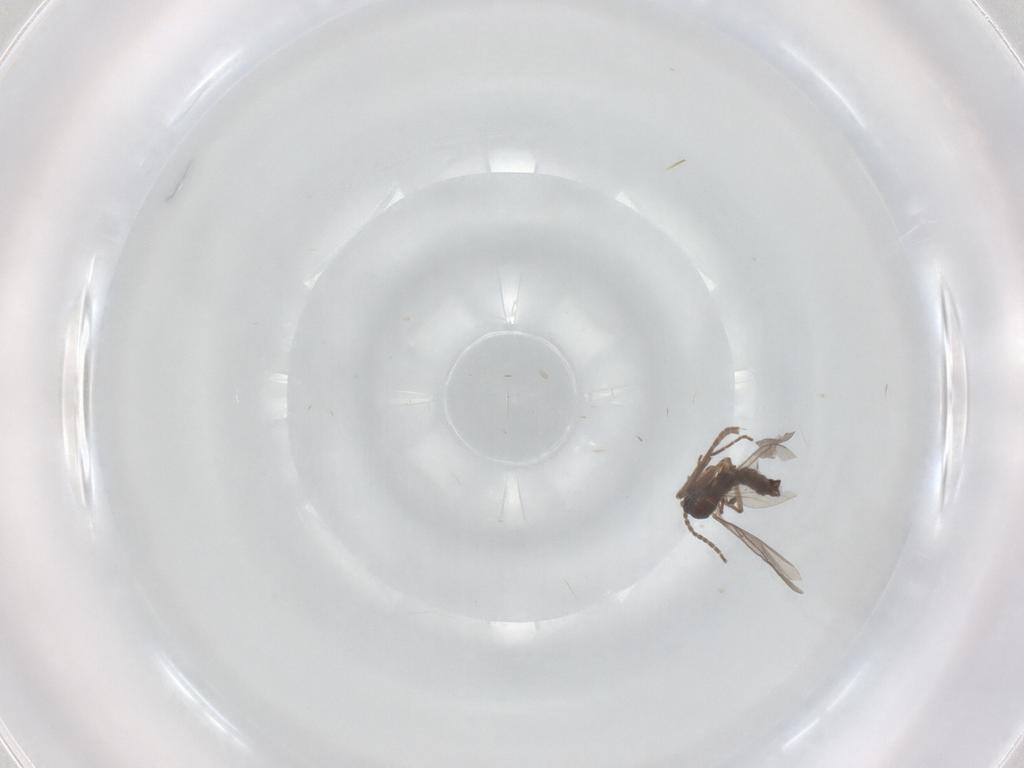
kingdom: Animalia
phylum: Arthropoda
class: Insecta
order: Diptera
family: Sciaridae
